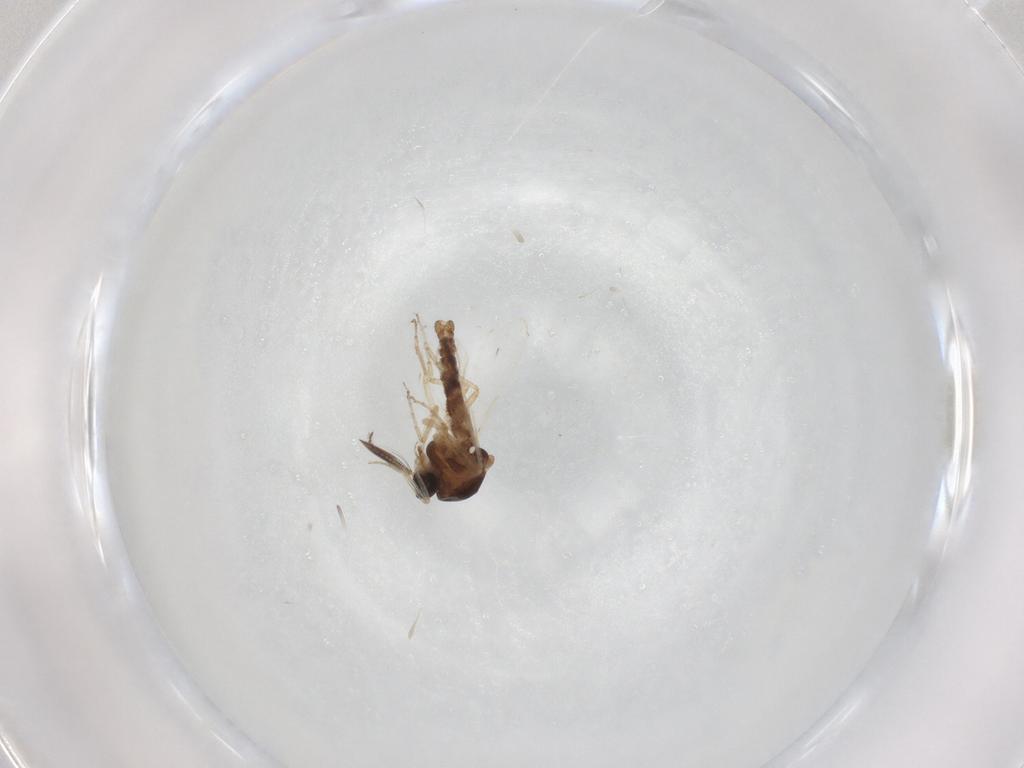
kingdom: Animalia
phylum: Arthropoda
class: Insecta
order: Diptera
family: Ceratopogonidae
